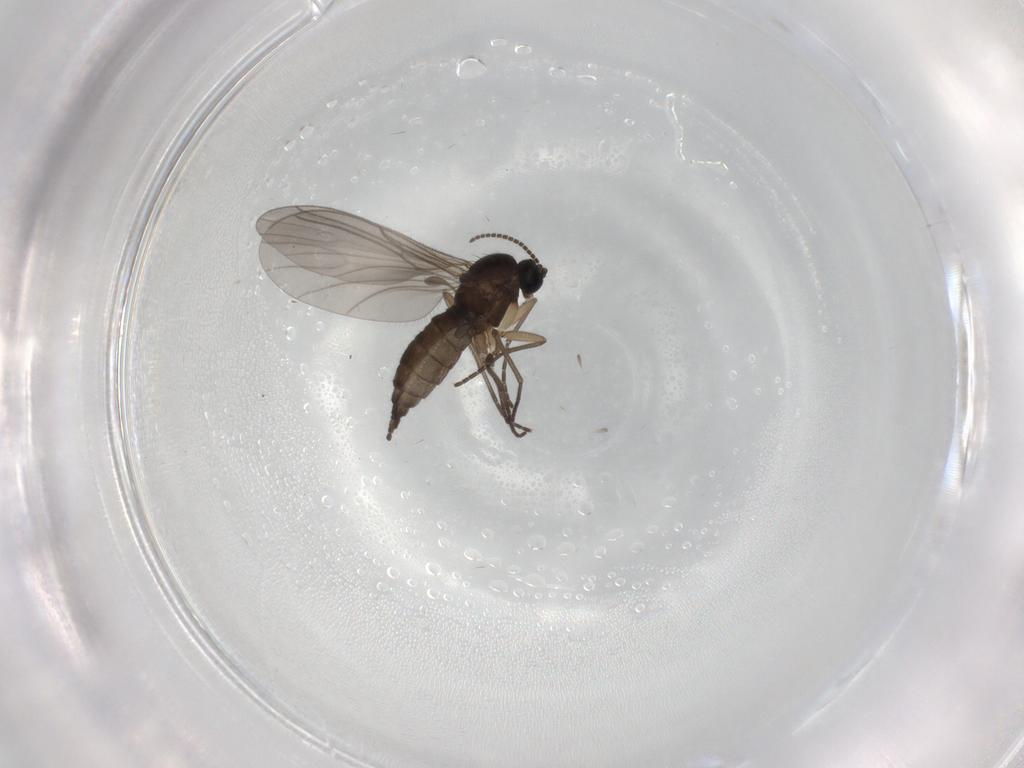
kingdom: Animalia
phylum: Arthropoda
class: Insecta
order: Diptera
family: Sciaridae
